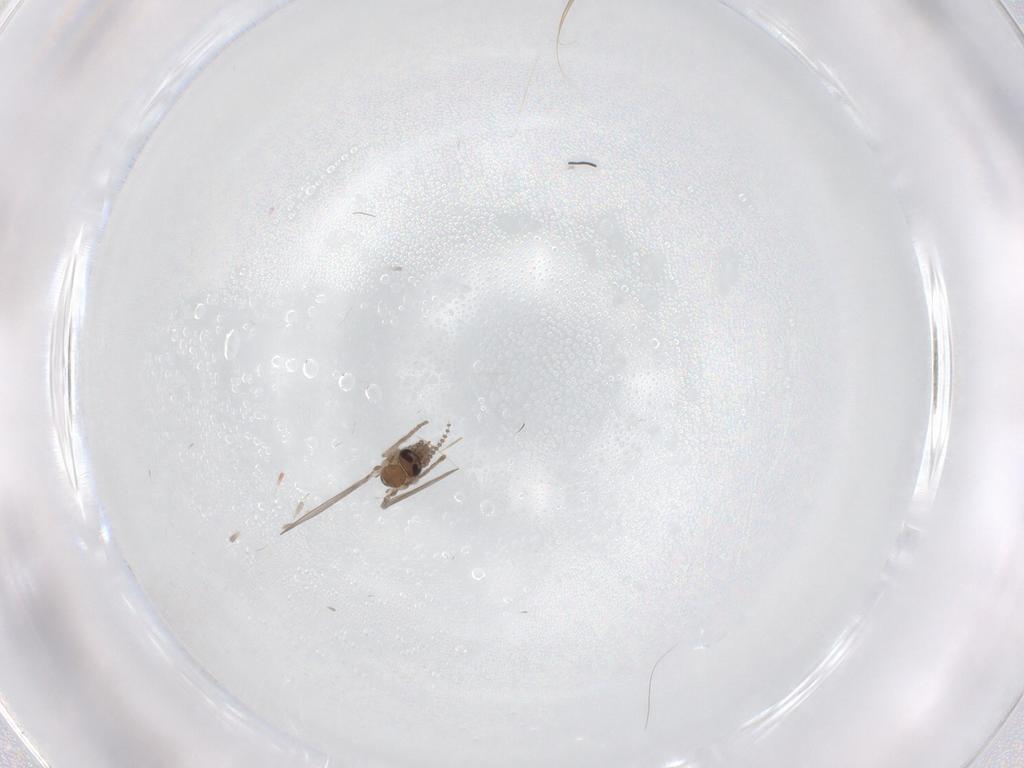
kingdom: Animalia
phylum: Arthropoda
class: Insecta
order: Diptera
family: Psychodidae
